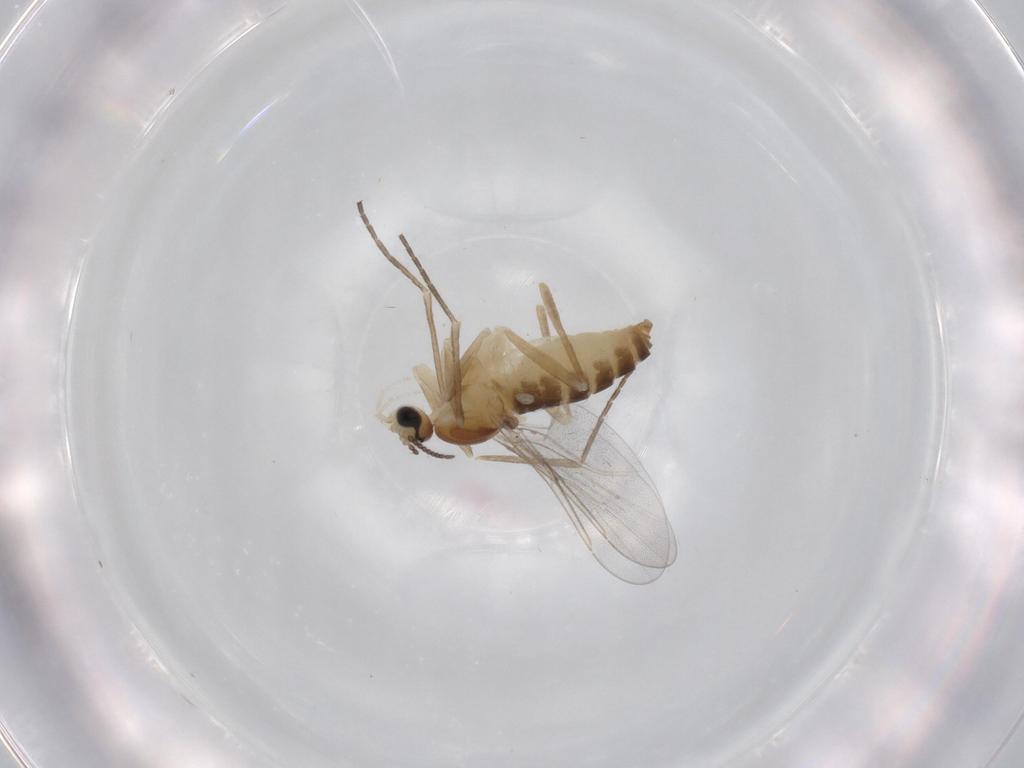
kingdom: Animalia
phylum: Arthropoda
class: Insecta
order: Diptera
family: Cecidomyiidae
